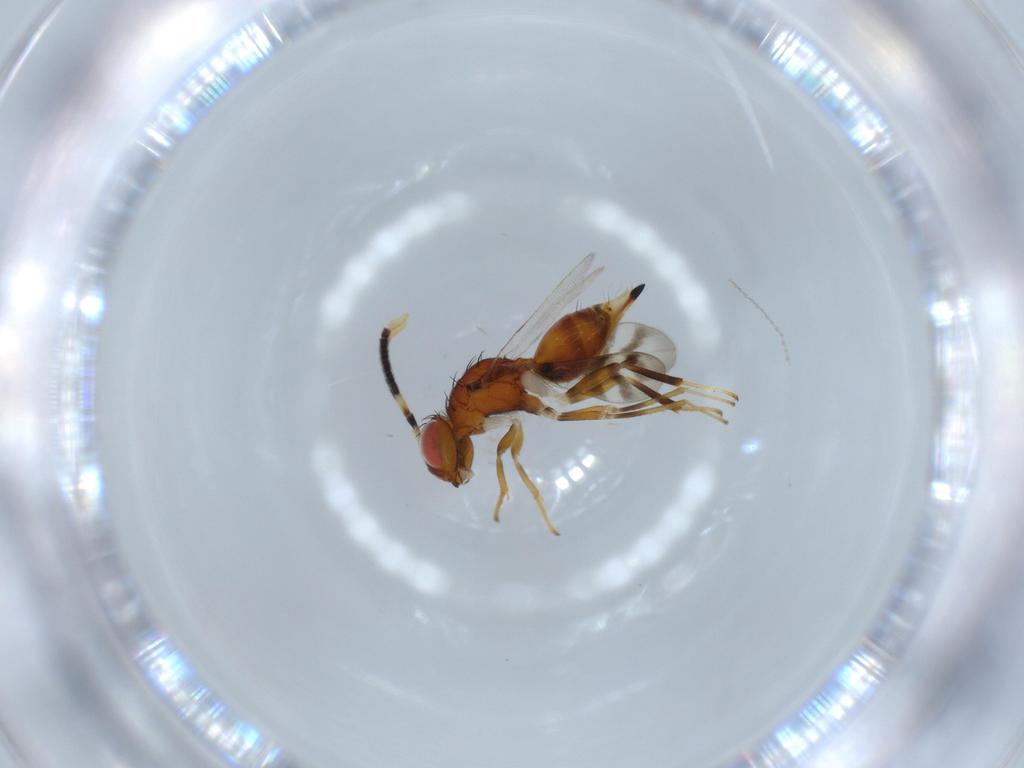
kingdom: Animalia
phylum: Arthropoda
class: Insecta
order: Hymenoptera
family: Diparidae
